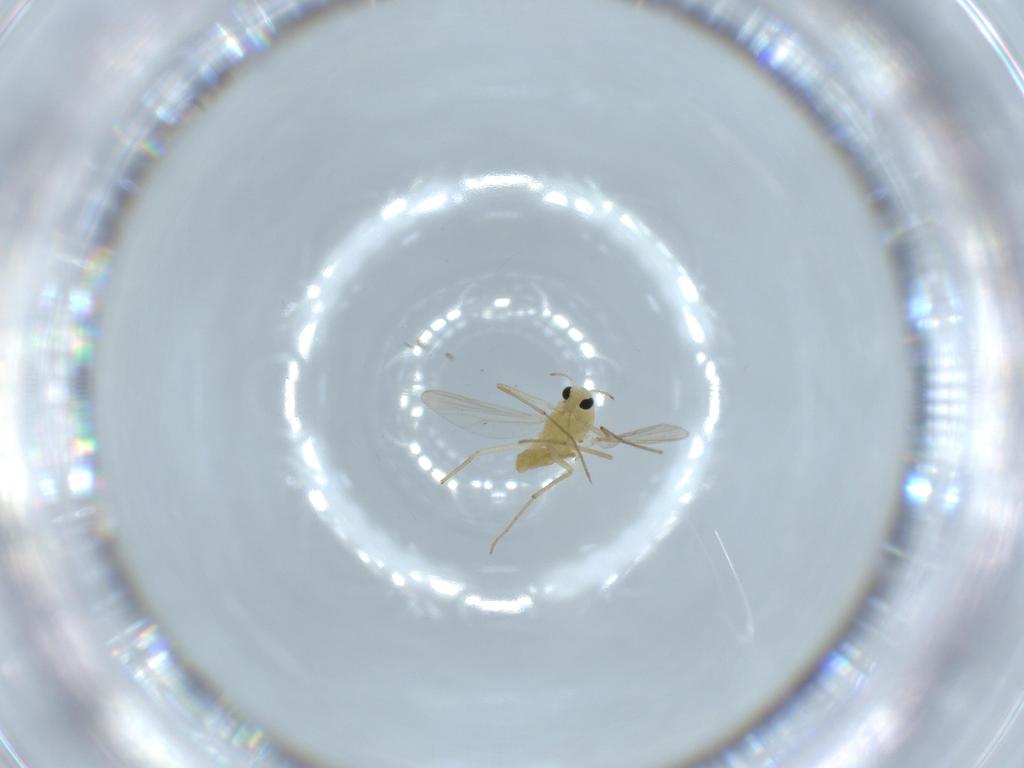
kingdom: Animalia
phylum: Arthropoda
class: Insecta
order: Diptera
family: Chironomidae
